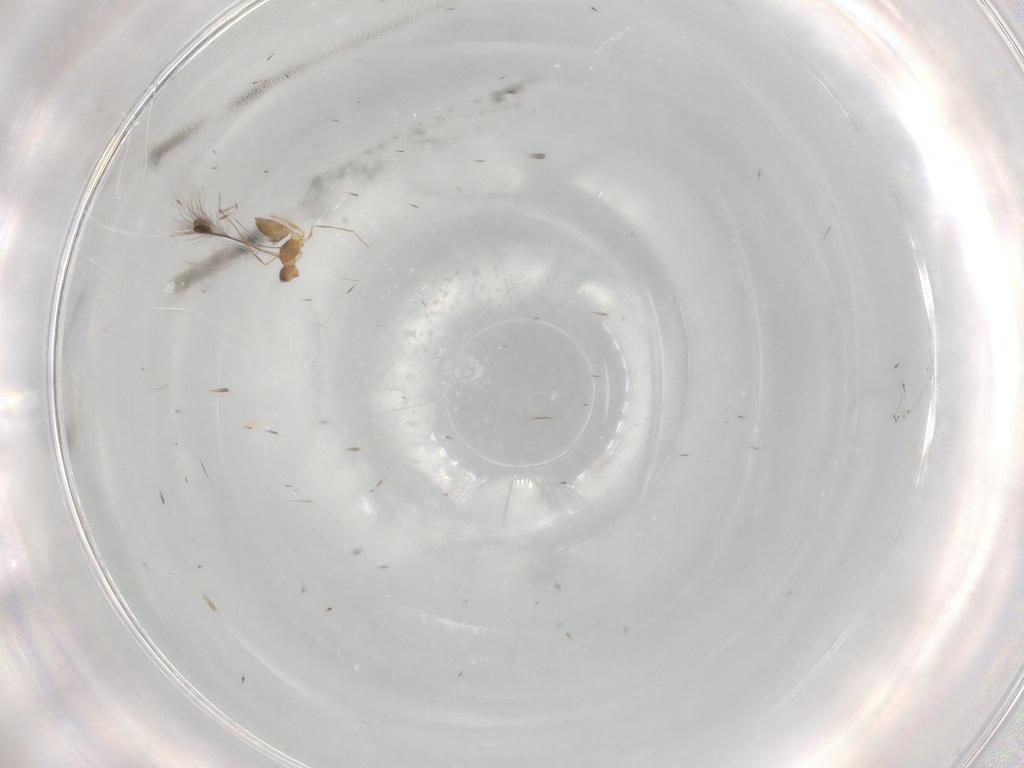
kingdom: Animalia
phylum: Arthropoda
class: Insecta
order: Hymenoptera
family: Mymaridae
